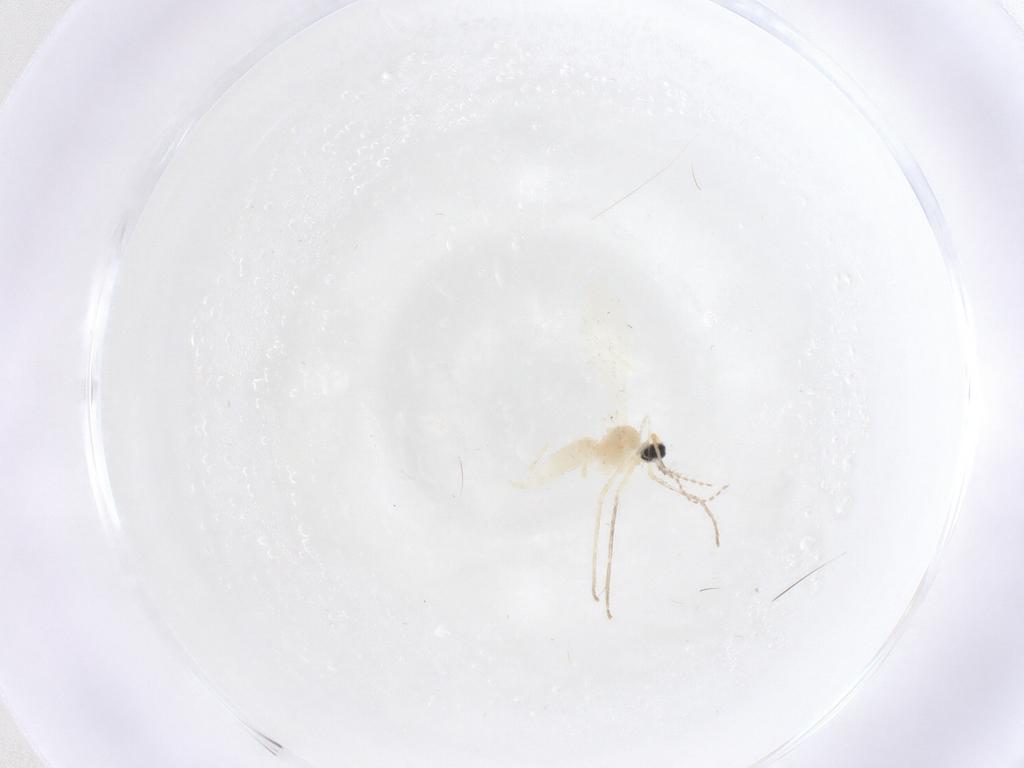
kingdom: Animalia
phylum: Arthropoda
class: Insecta
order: Diptera
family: Cecidomyiidae
